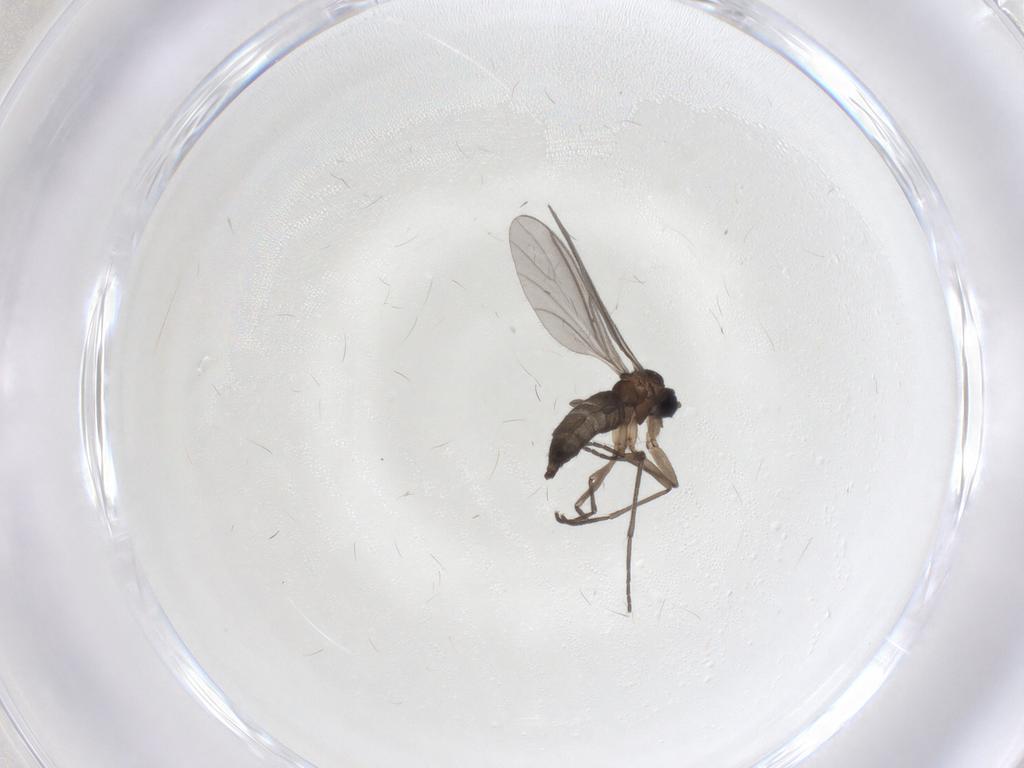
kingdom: Animalia
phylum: Arthropoda
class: Insecta
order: Diptera
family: Sciaridae
